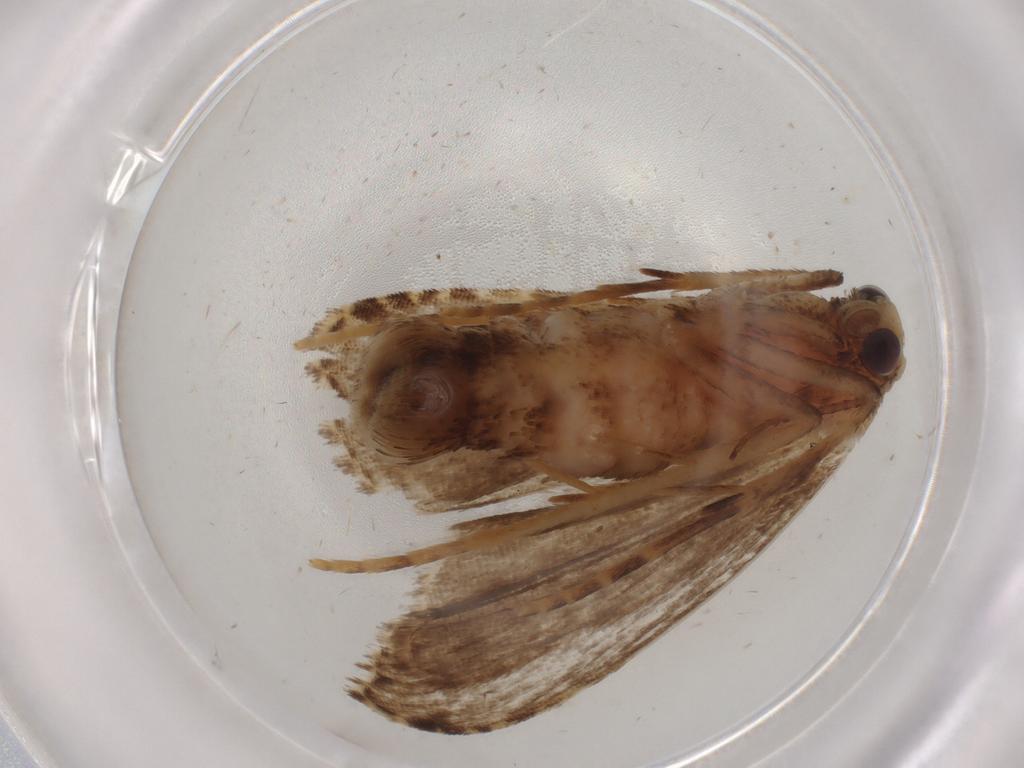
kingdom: Animalia
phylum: Arthropoda
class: Insecta
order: Lepidoptera
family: Erebidae
